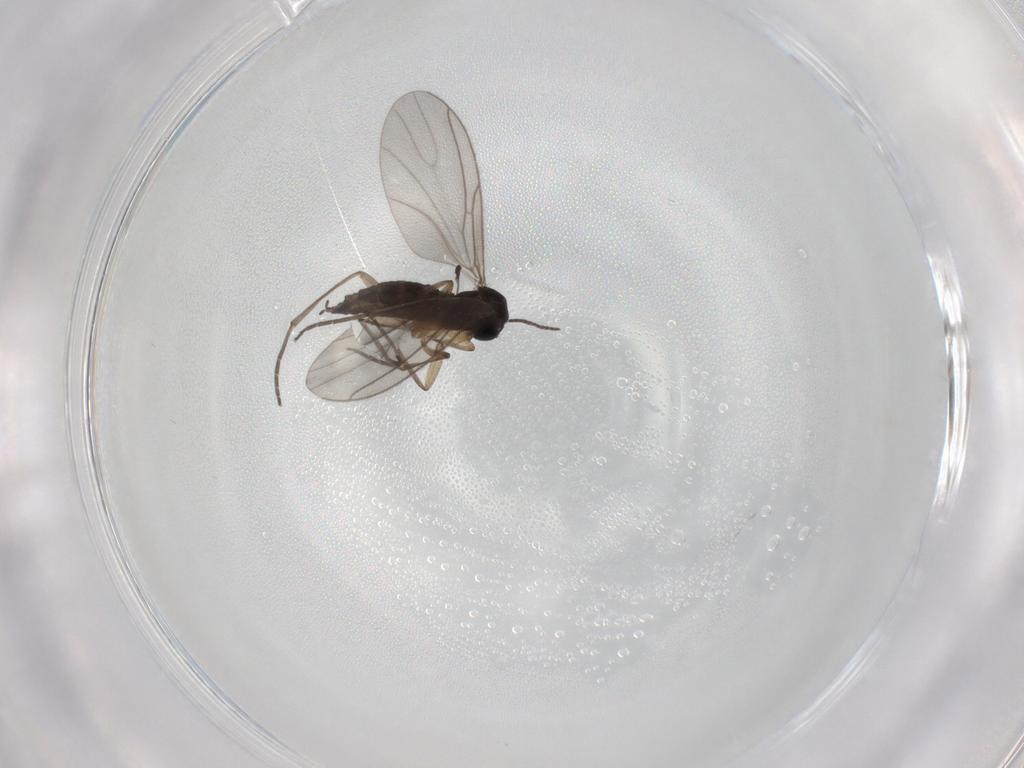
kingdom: Animalia
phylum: Arthropoda
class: Insecta
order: Diptera
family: Sciaridae
